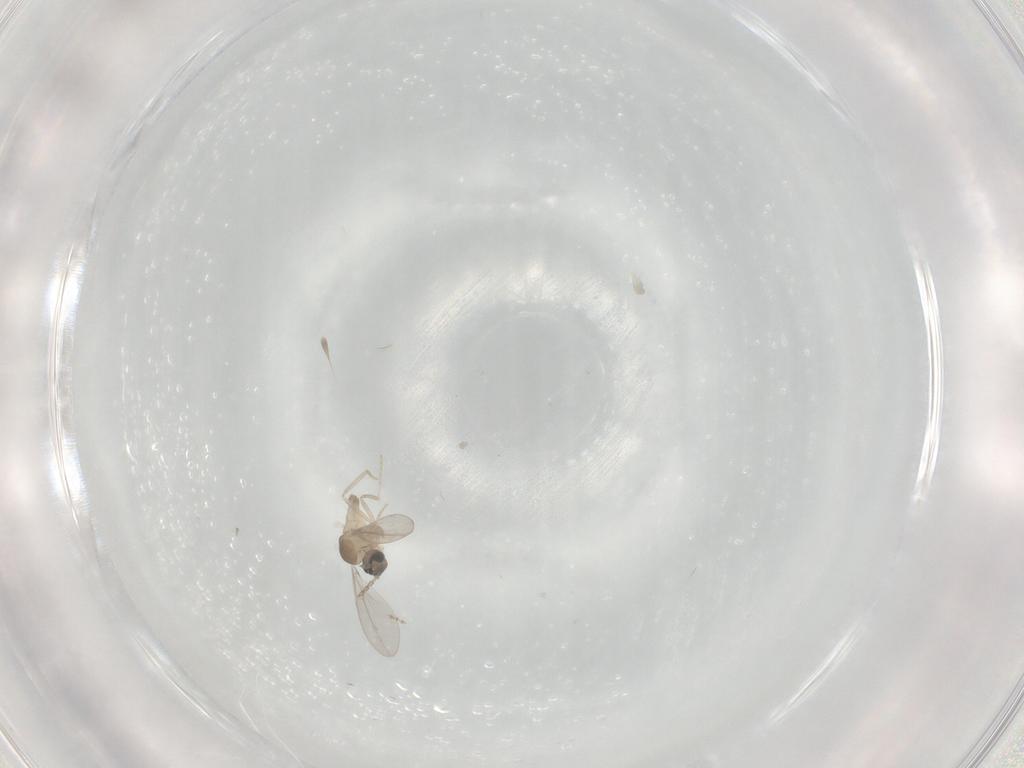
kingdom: Animalia
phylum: Arthropoda
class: Insecta
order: Diptera
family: Cecidomyiidae
